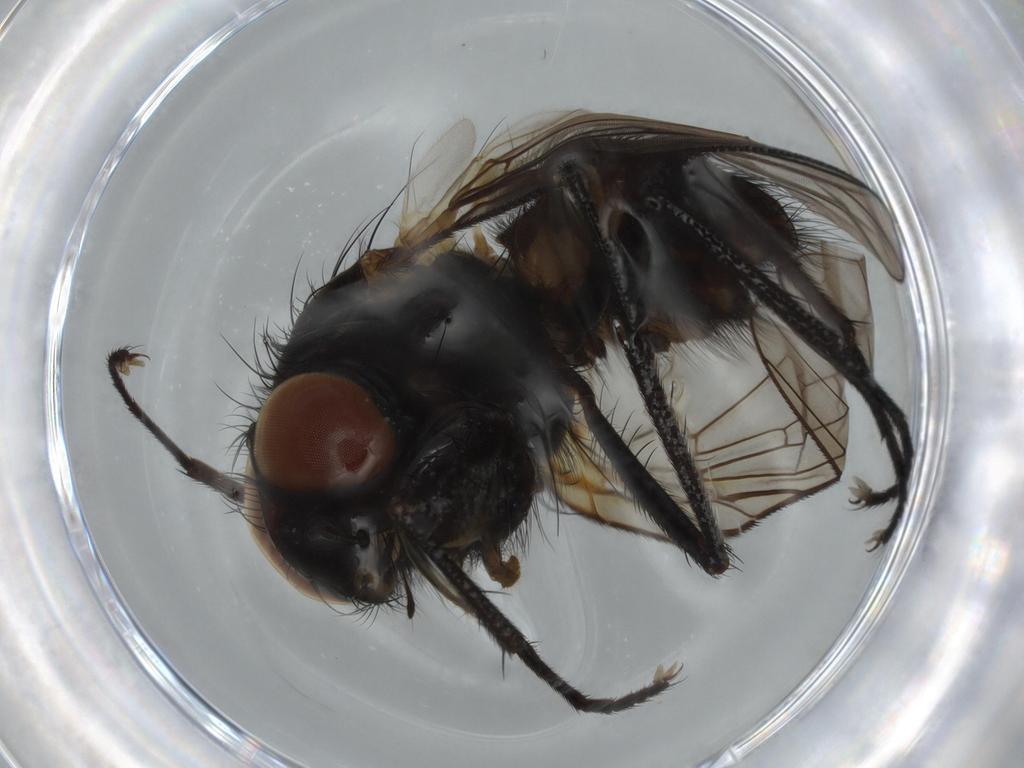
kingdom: Animalia
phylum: Arthropoda
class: Insecta
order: Diptera
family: Anthomyiidae
